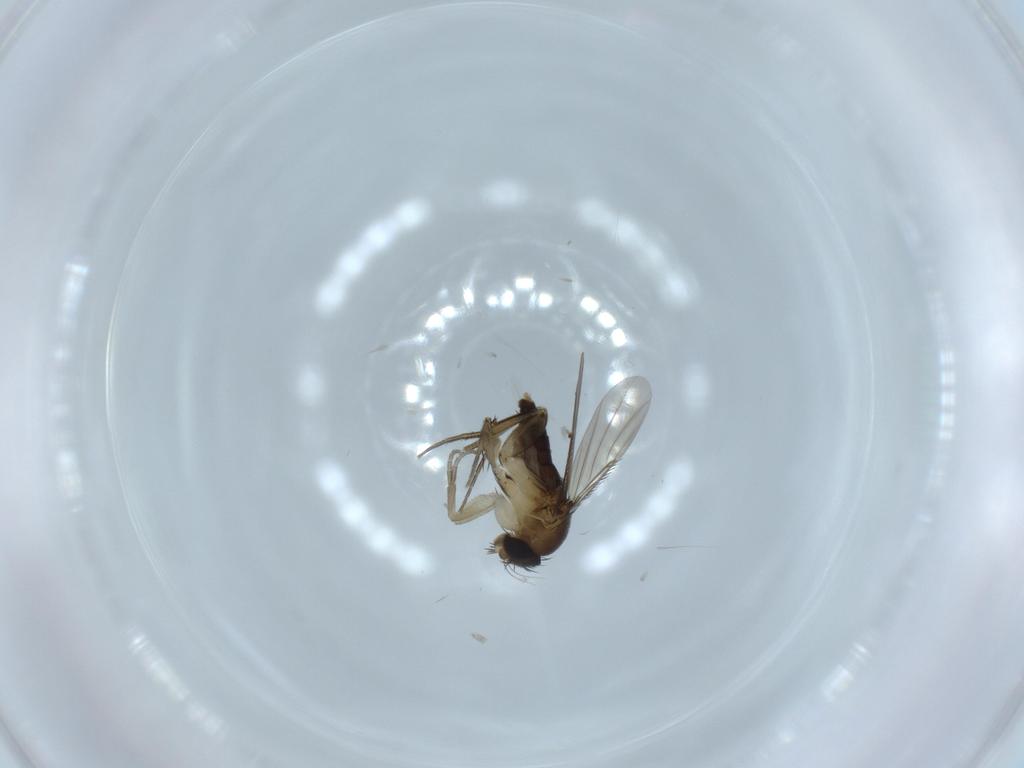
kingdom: Animalia
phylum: Arthropoda
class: Insecta
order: Diptera
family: Phoridae
